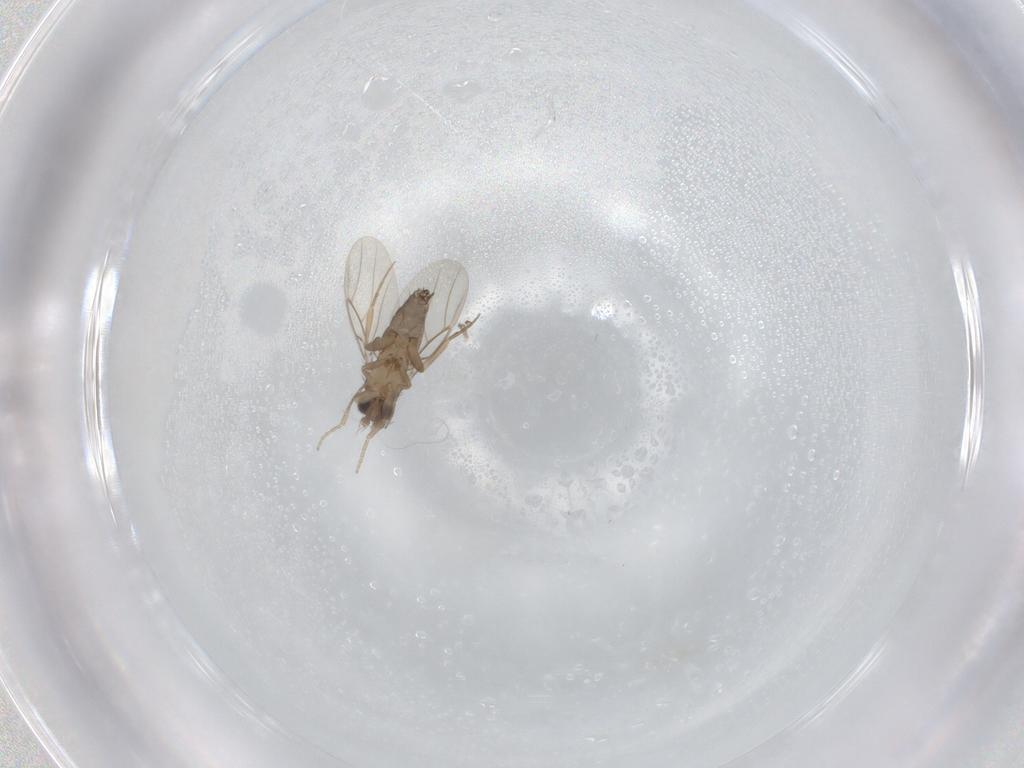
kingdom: Animalia
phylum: Arthropoda
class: Insecta
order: Diptera
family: Phoridae
